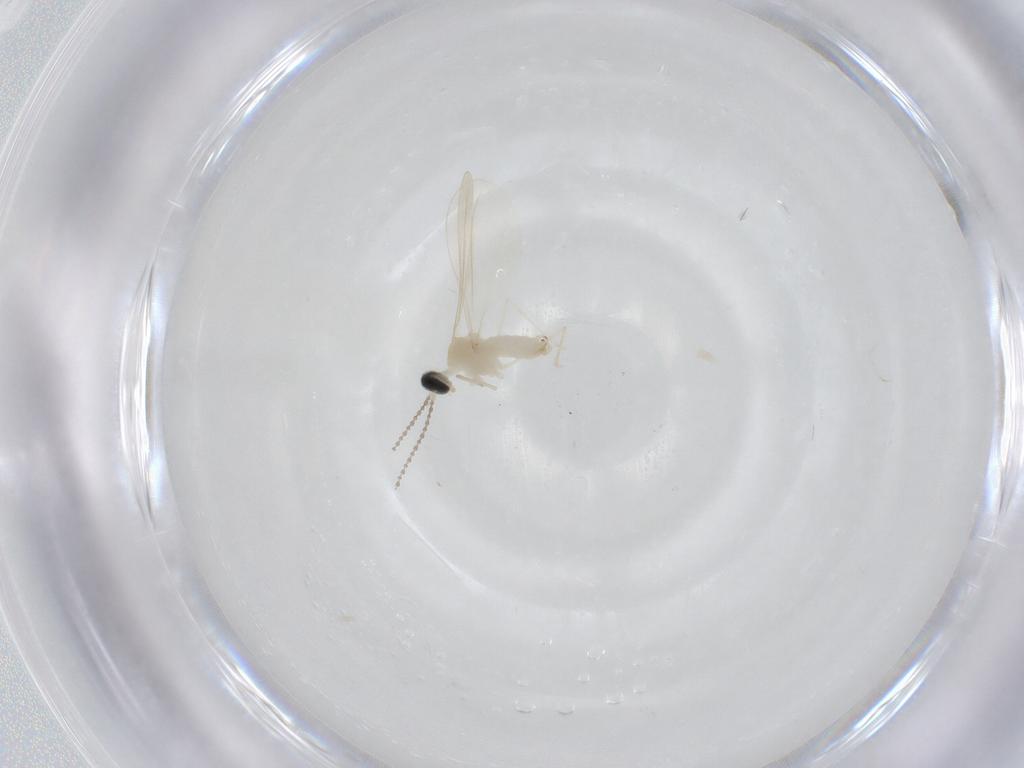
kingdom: Animalia
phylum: Arthropoda
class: Insecta
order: Diptera
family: Cecidomyiidae
